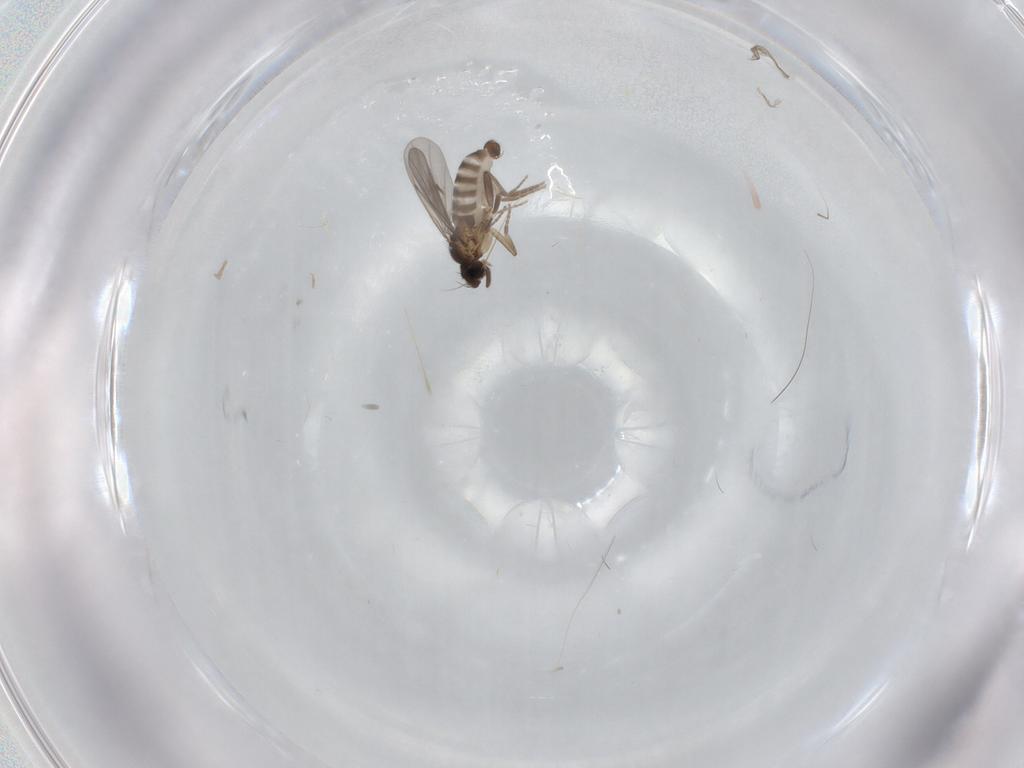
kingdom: Animalia
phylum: Arthropoda
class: Insecta
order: Diptera
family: Sciaridae
